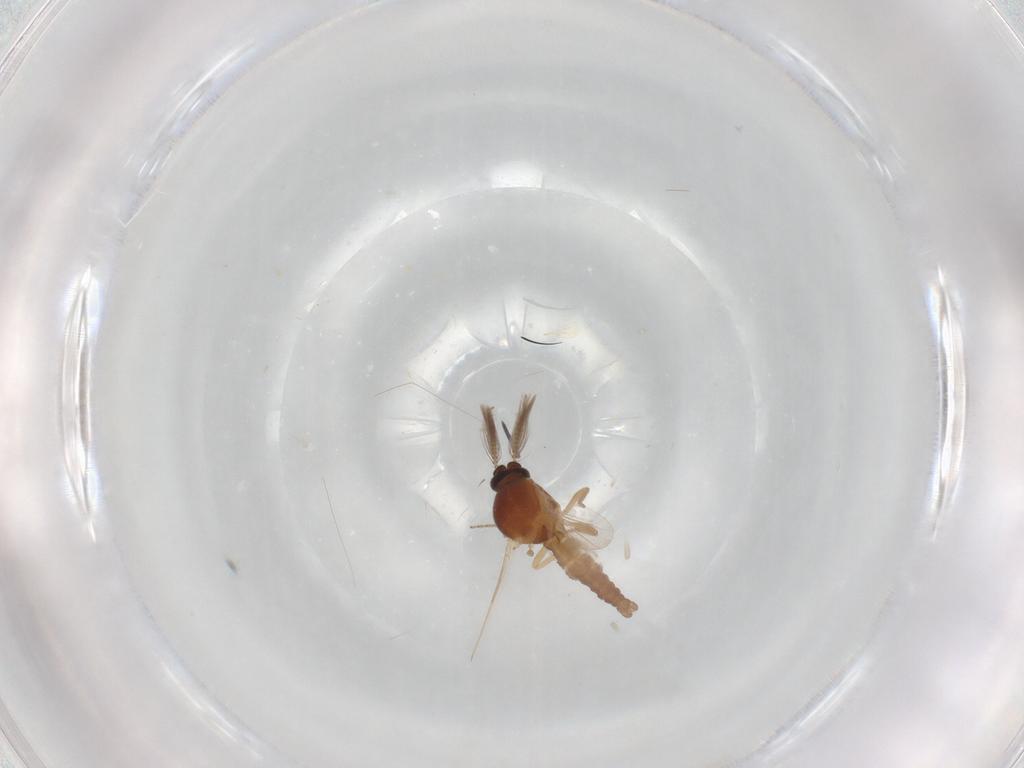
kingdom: Animalia
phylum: Arthropoda
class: Insecta
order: Diptera
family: Ceratopogonidae
